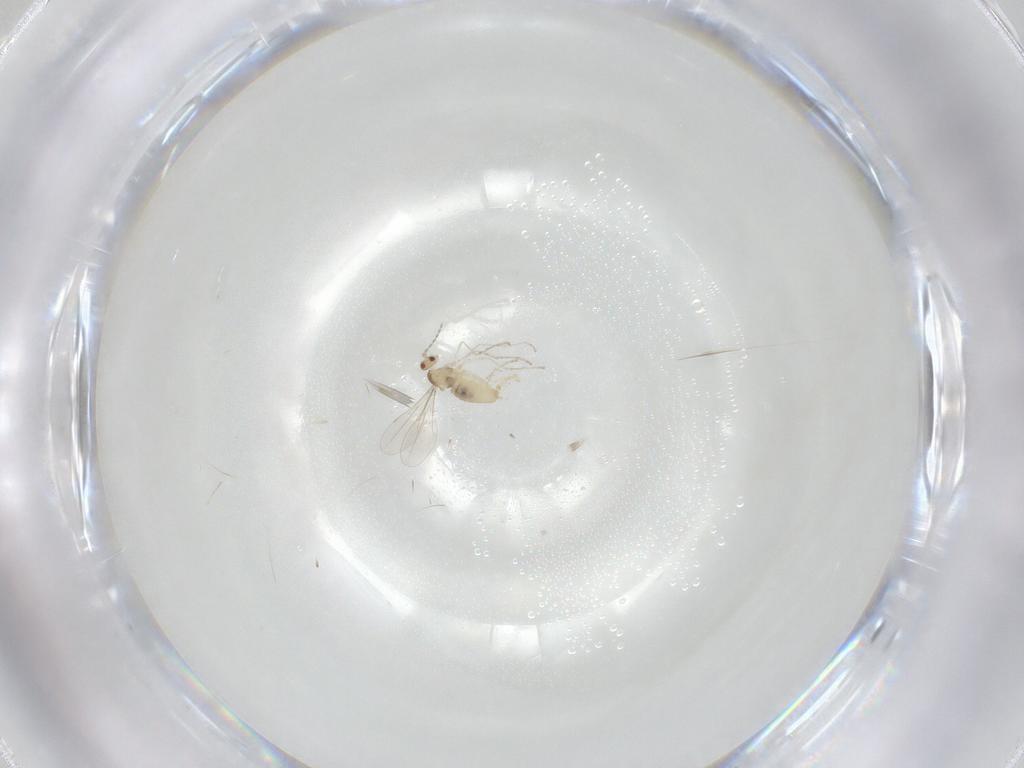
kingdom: Animalia
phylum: Arthropoda
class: Insecta
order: Diptera
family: Cecidomyiidae
